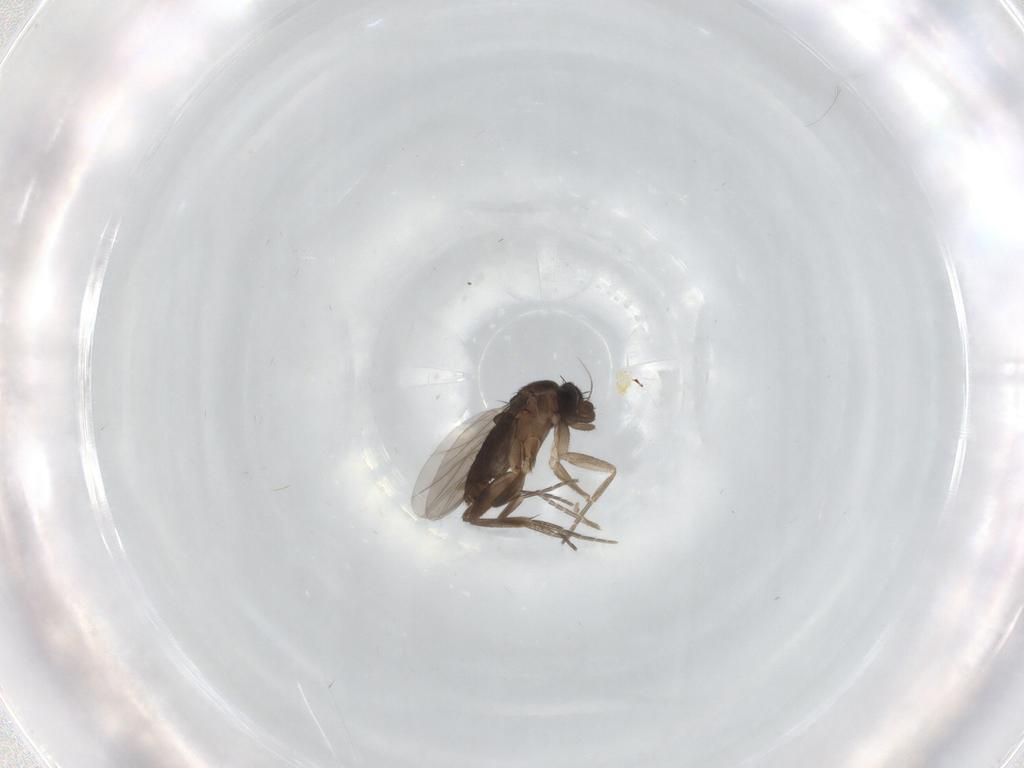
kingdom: Animalia
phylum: Arthropoda
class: Insecta
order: Diptera
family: Phoridae
